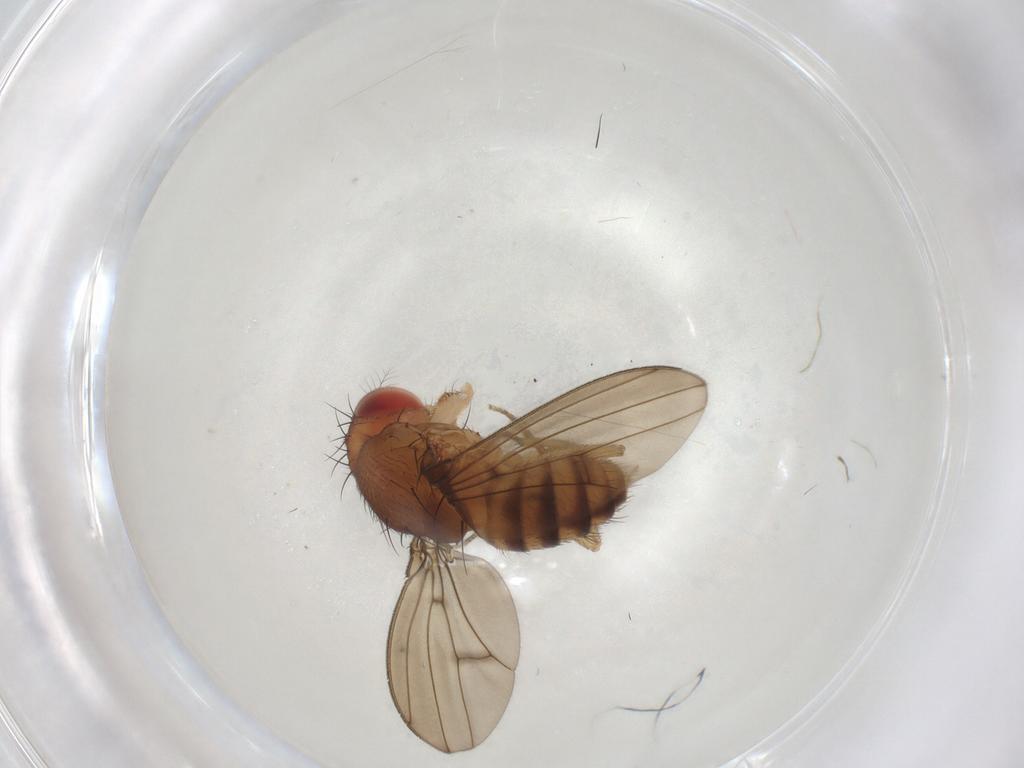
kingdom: Animalia
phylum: Arthropoda
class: Insecta
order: Diptera
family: Drosophilidae
